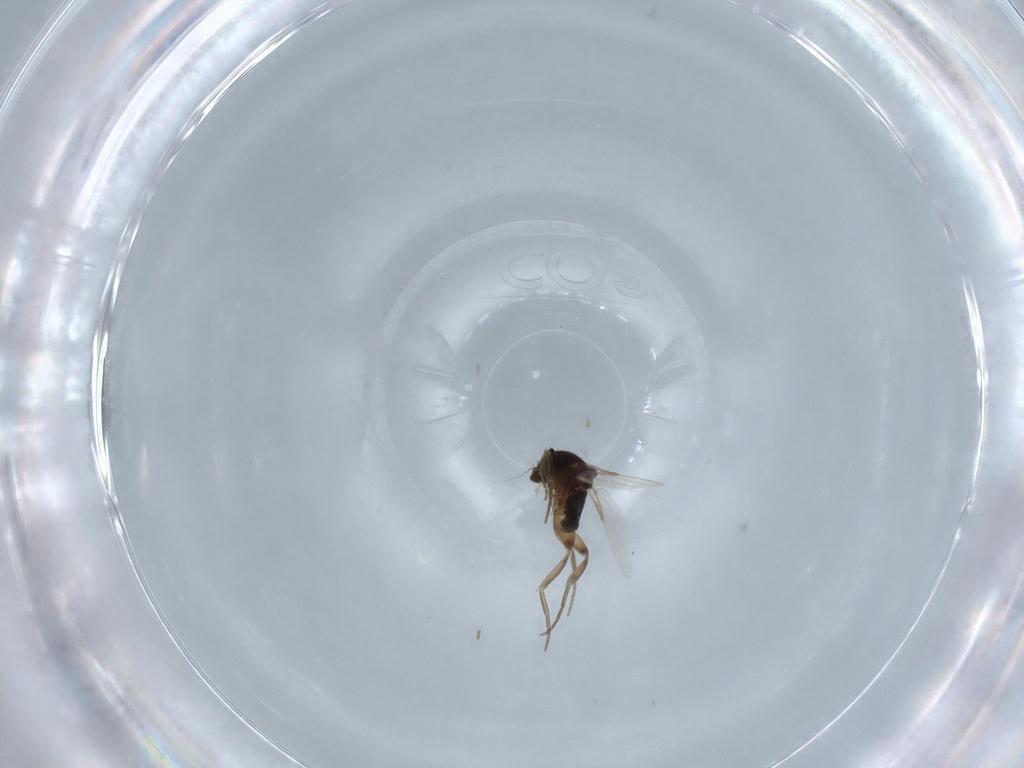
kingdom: Animalia
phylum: Arthropoda
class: Insecta
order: Diptera
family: Phoridae
